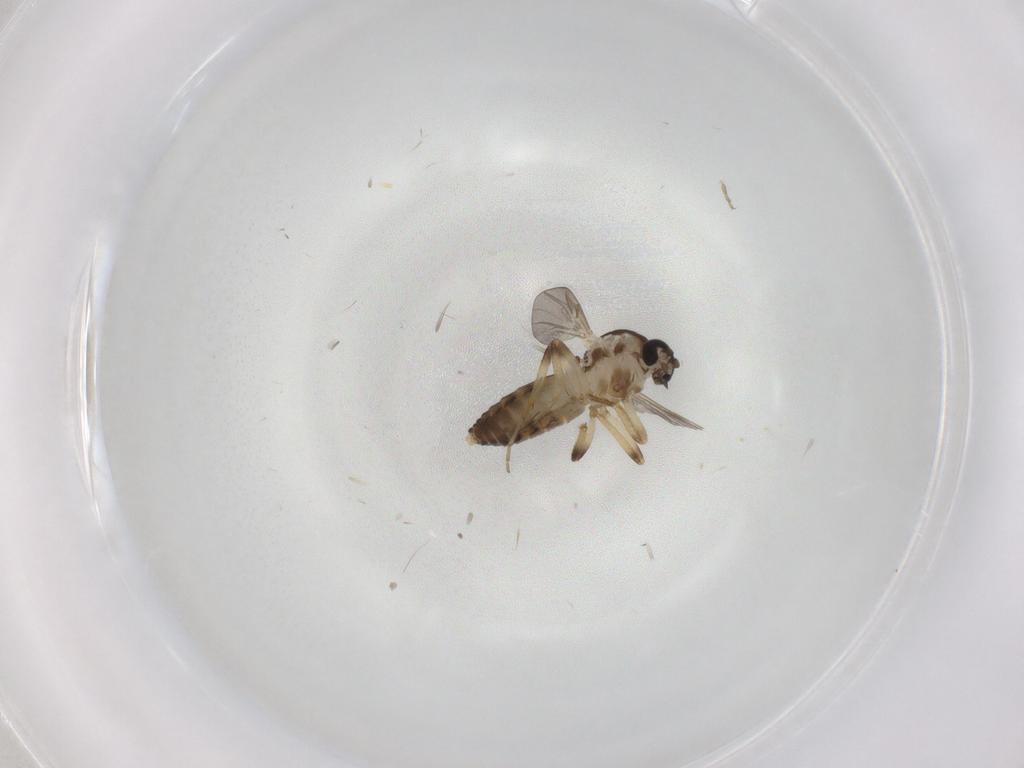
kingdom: Animalia
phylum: Arthropoda
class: Insecta
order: Diptera
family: Ceratopogonidae
